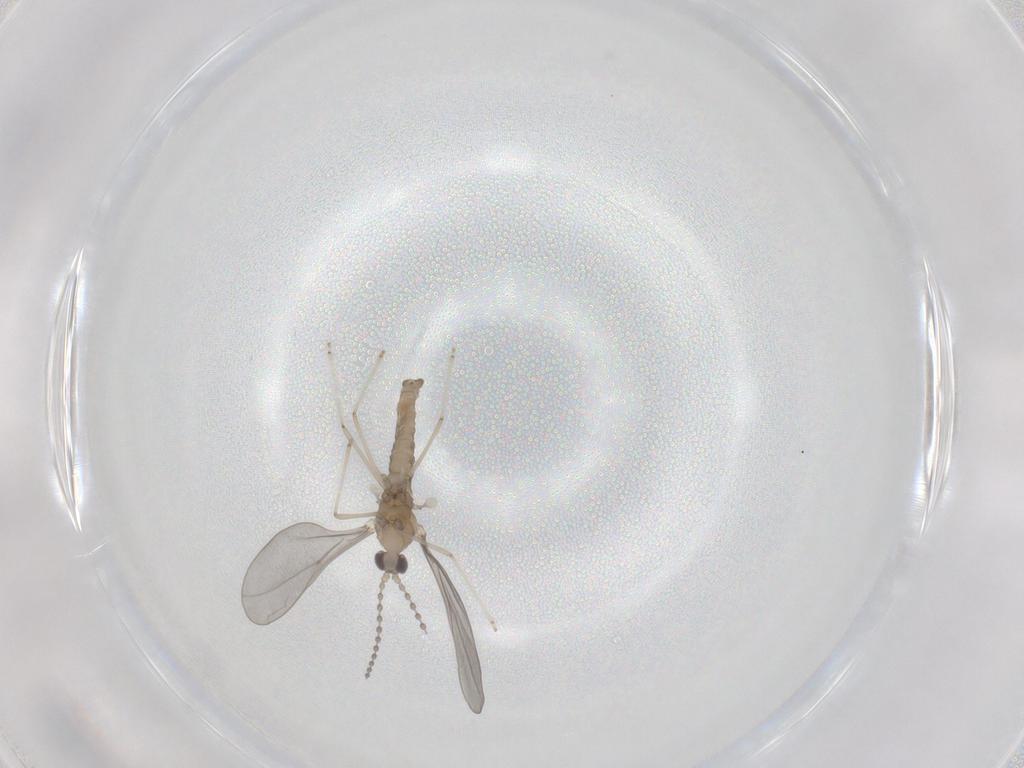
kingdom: Animalia
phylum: Arthropoda
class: Insecta
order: Diptera
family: Cecidomyiidae
